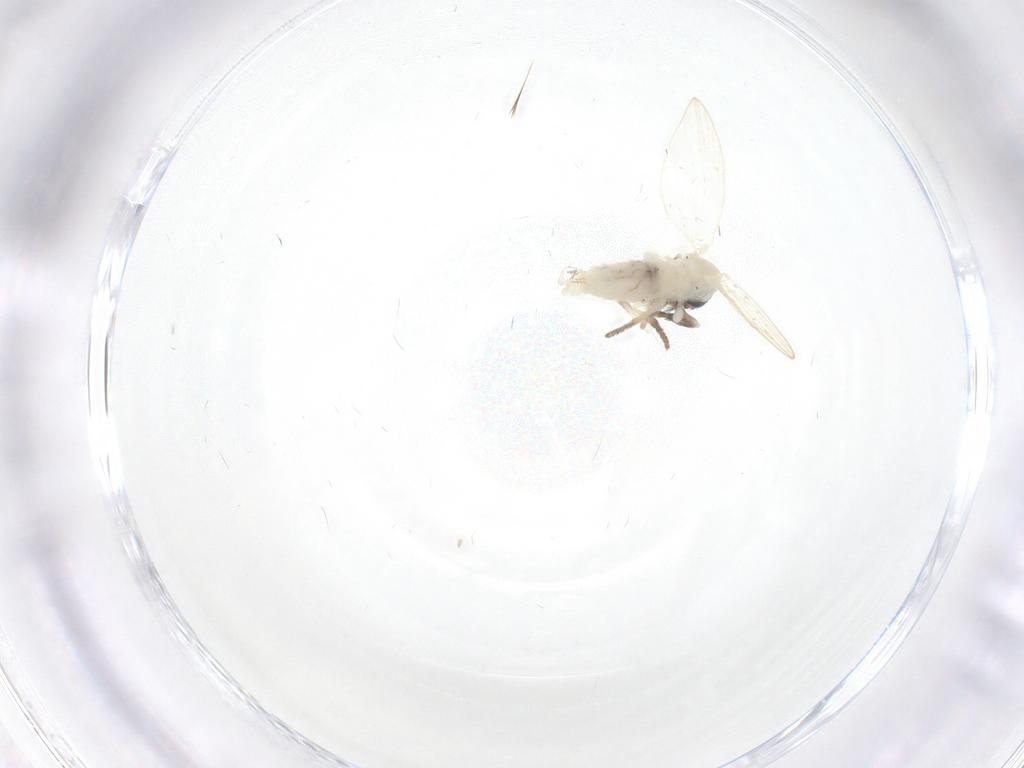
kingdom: Animalia
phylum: Arthropoda
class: Insecta
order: Diptera
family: Psychodidae
